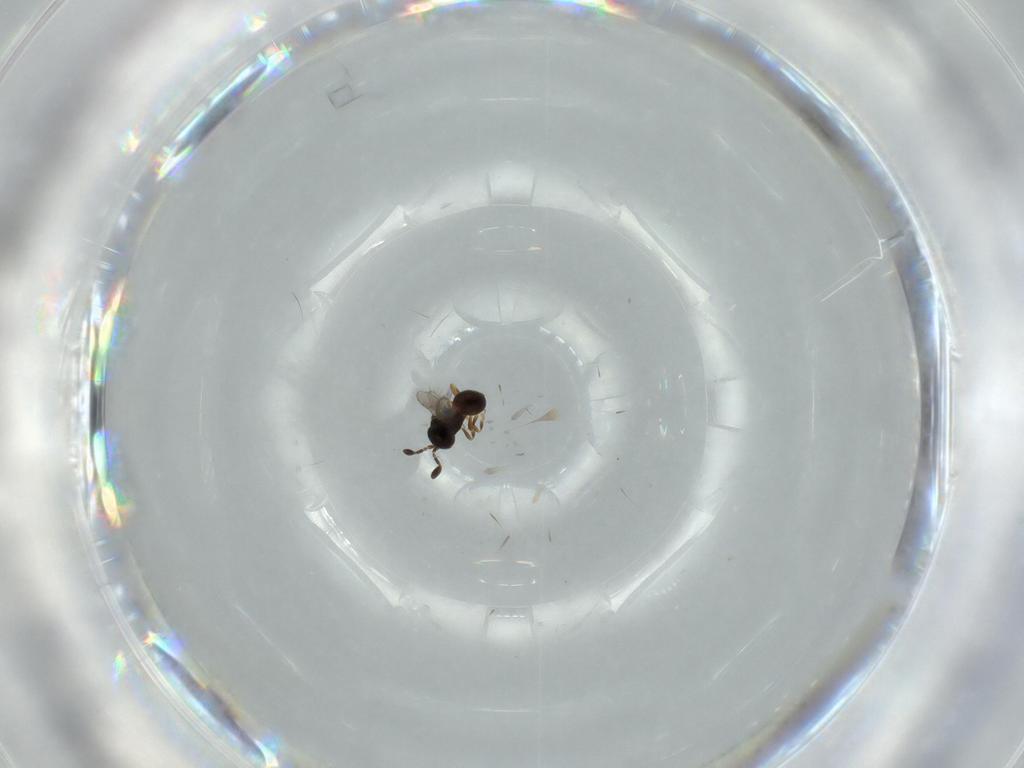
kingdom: Animalia
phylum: Arthropoda
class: Insecta
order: Hymenoptera
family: Scelionidae
